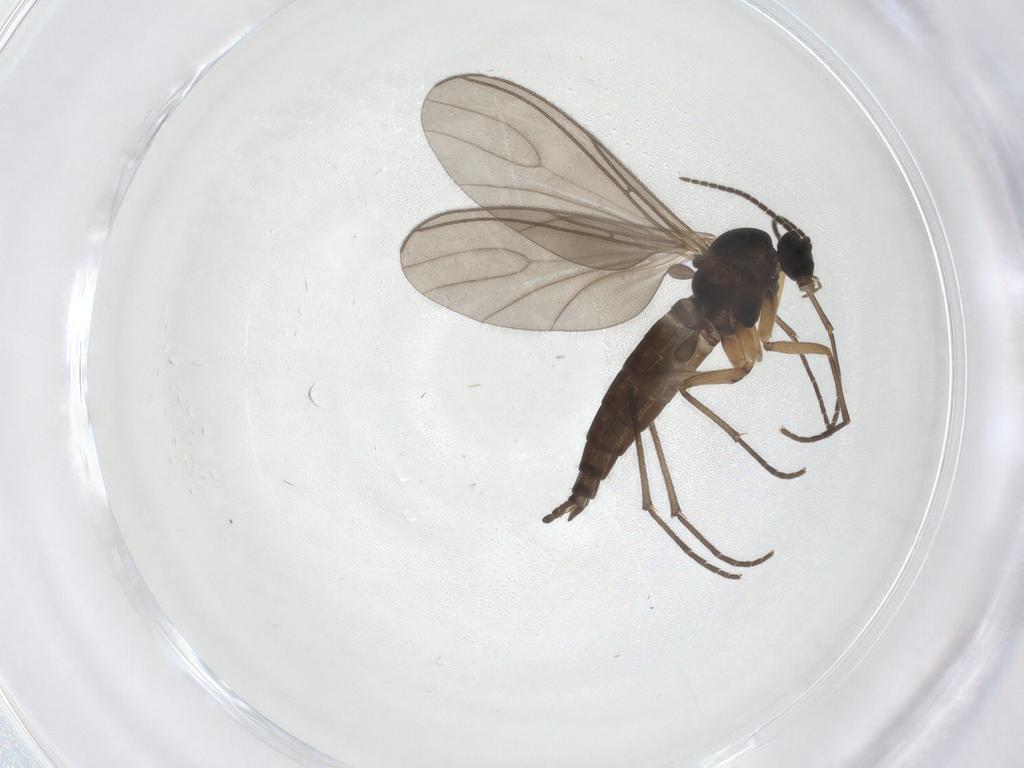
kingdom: Animalia
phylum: Arthropoda
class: Insecta
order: Diptera
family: Sciaridae
